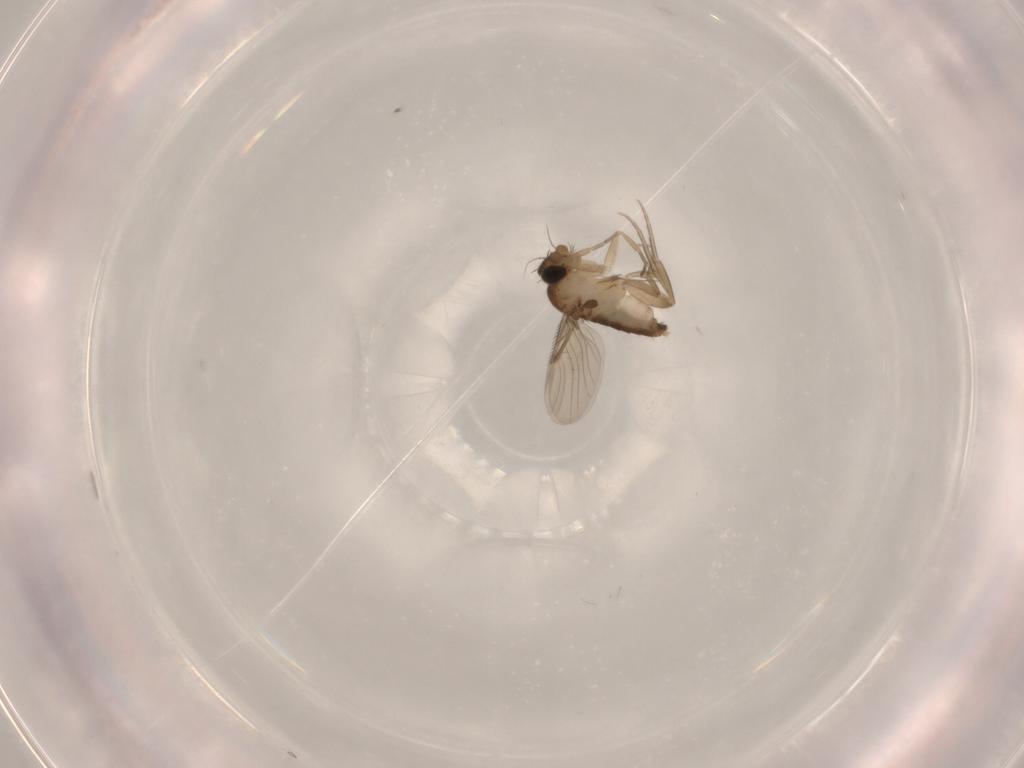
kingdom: Animalia
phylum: Arthropoda
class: Insecta
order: Diptera
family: Phoridae
